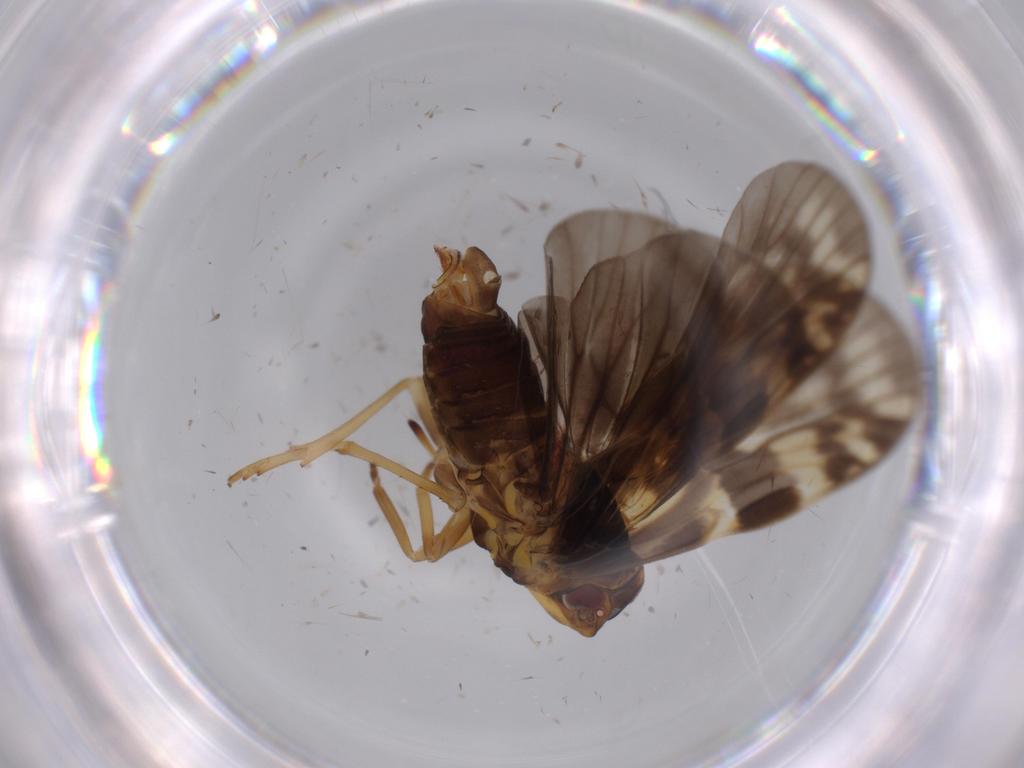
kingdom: Animalia
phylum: Arthropoda
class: Insecta
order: Hemiptera
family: Cixiidae
